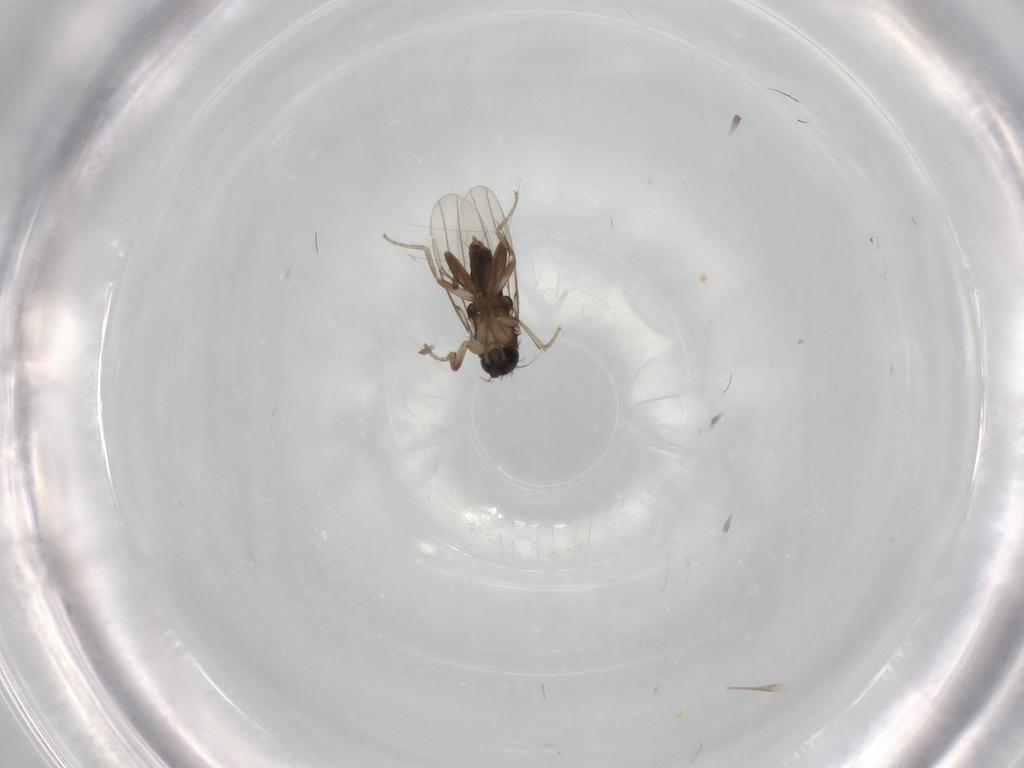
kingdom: Animalia
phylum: Arthropoda
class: Insecta
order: Diptera
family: Phoridae
